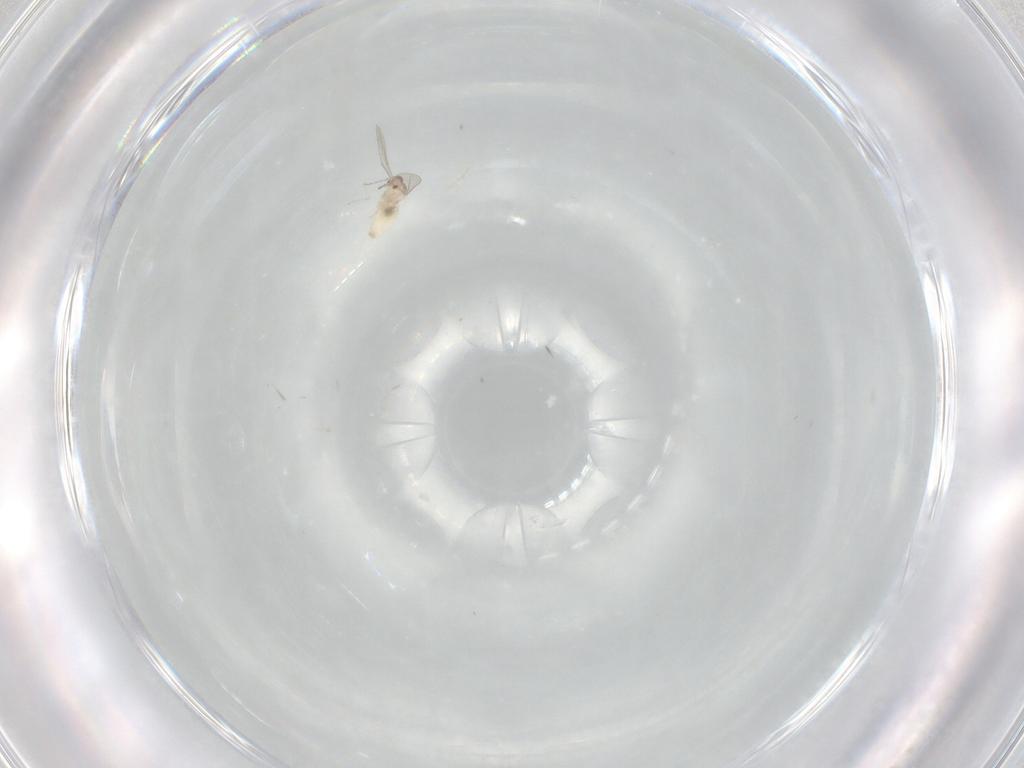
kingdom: Animalia
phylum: Arthropoda
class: Insecta
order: Diptera
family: Cecidomyiidae
